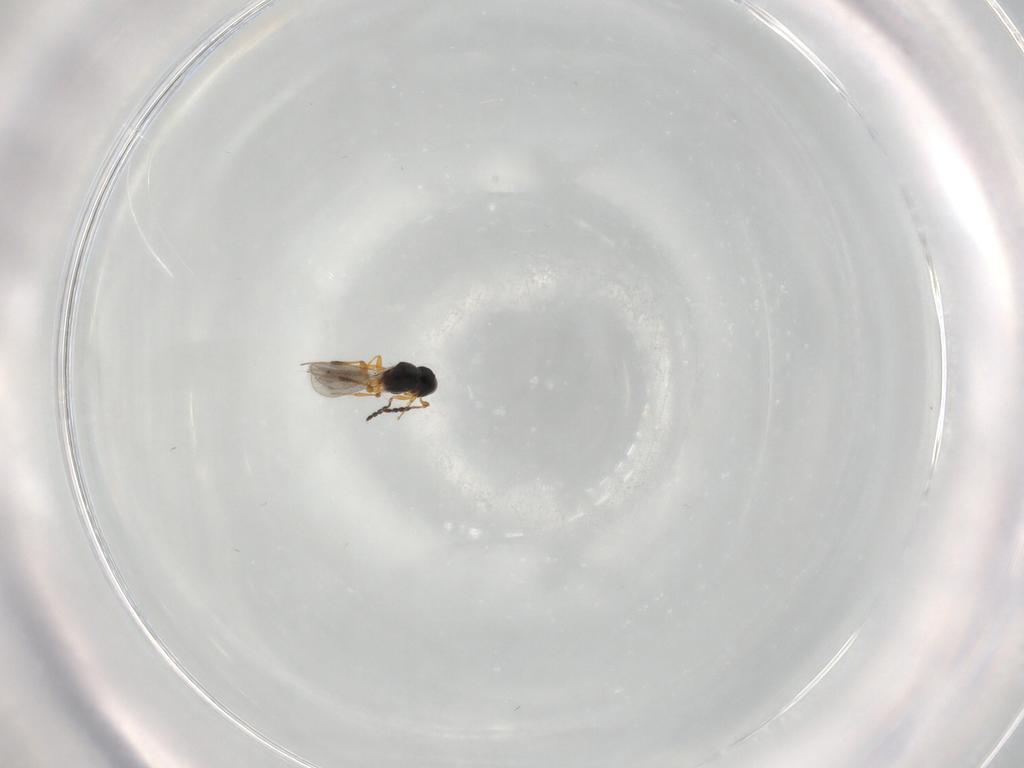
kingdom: Animalia
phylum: Arthropoda
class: Insecta
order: Hymenoptera
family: Platygastridae
